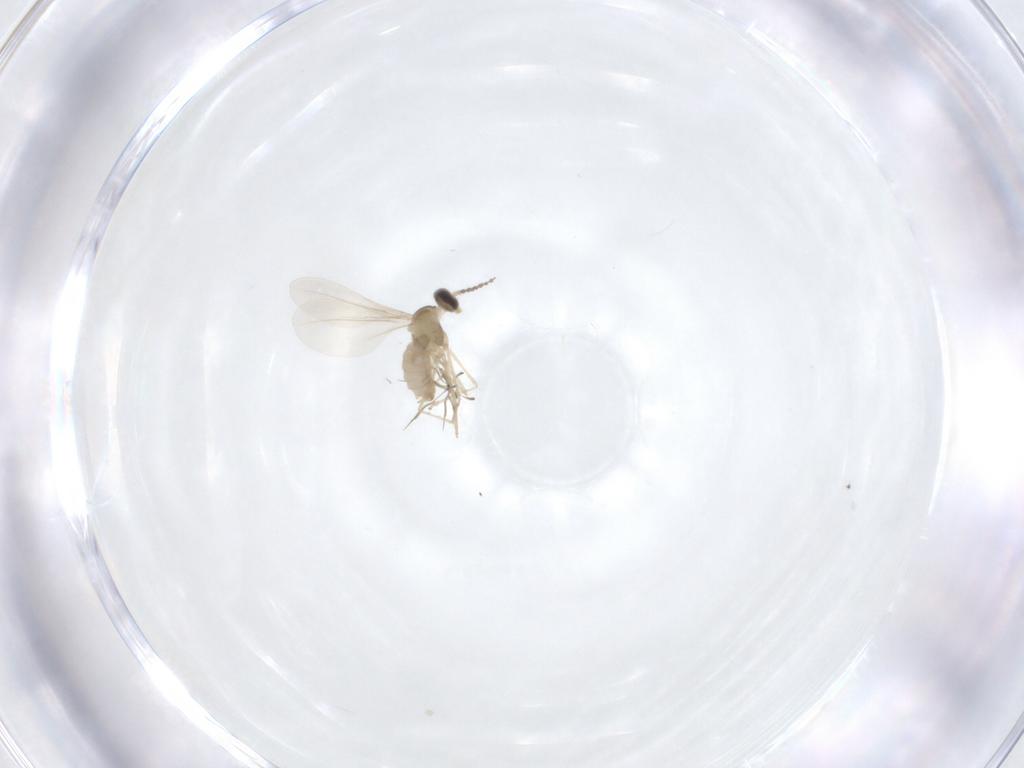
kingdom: Animalia
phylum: Arthropoda
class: Insecta
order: Diptera
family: Cecidomyiidae
